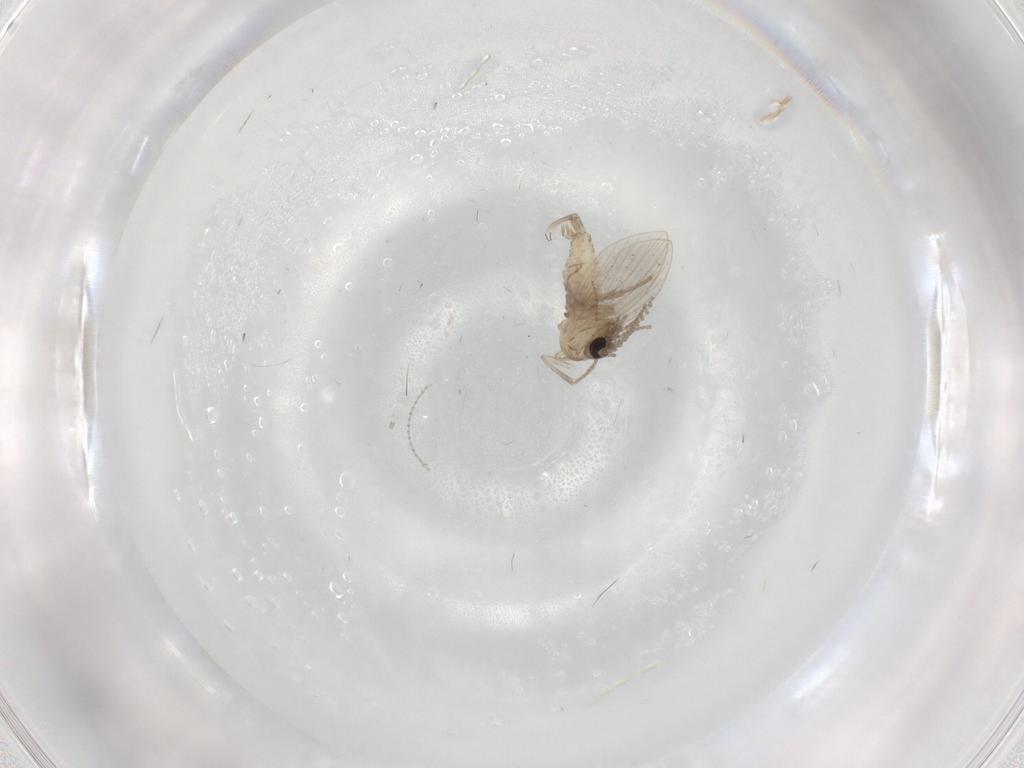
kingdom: Animalia
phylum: Arthropoda
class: Insecta
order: Diptera
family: Psychodidae
